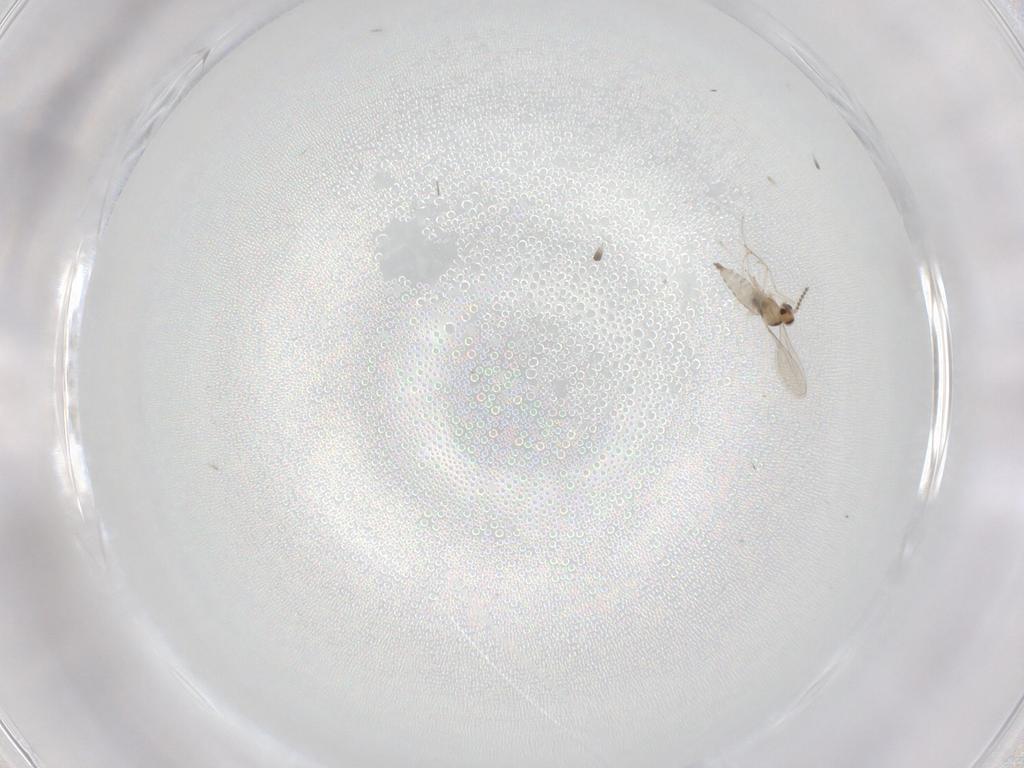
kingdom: Animalia
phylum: Arthropoda
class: Insecta
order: Diptera
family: Cecidomyiidae
